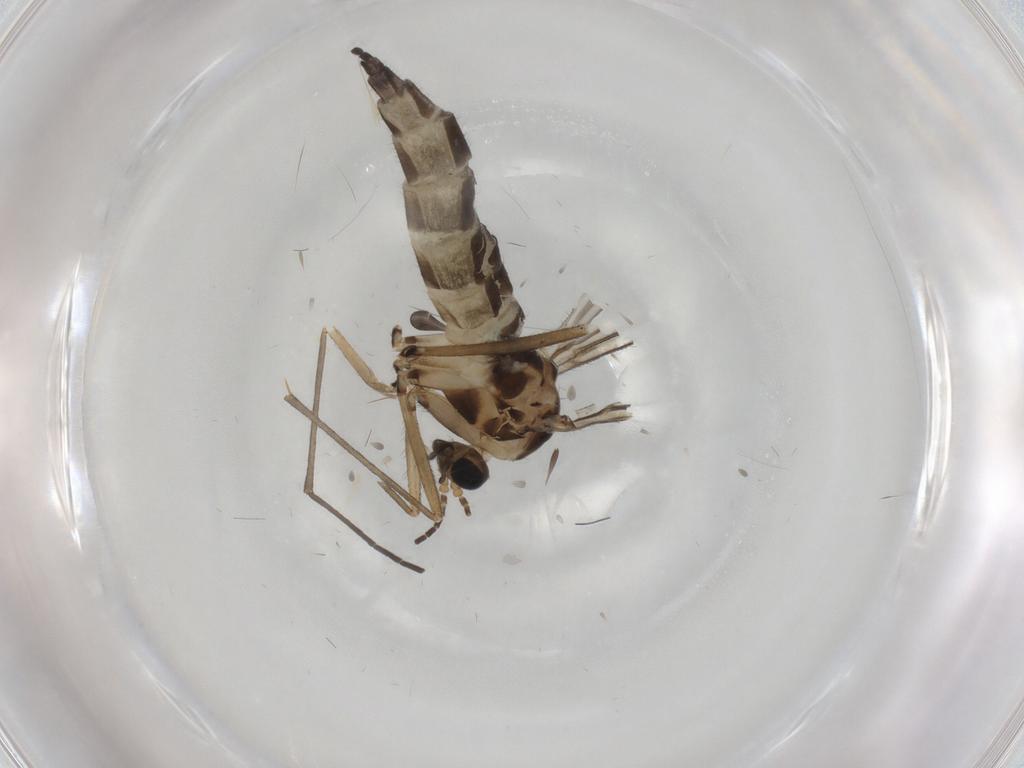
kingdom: Animalia
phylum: Arthropoda
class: Insecta
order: Diptera
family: Sciaridae
